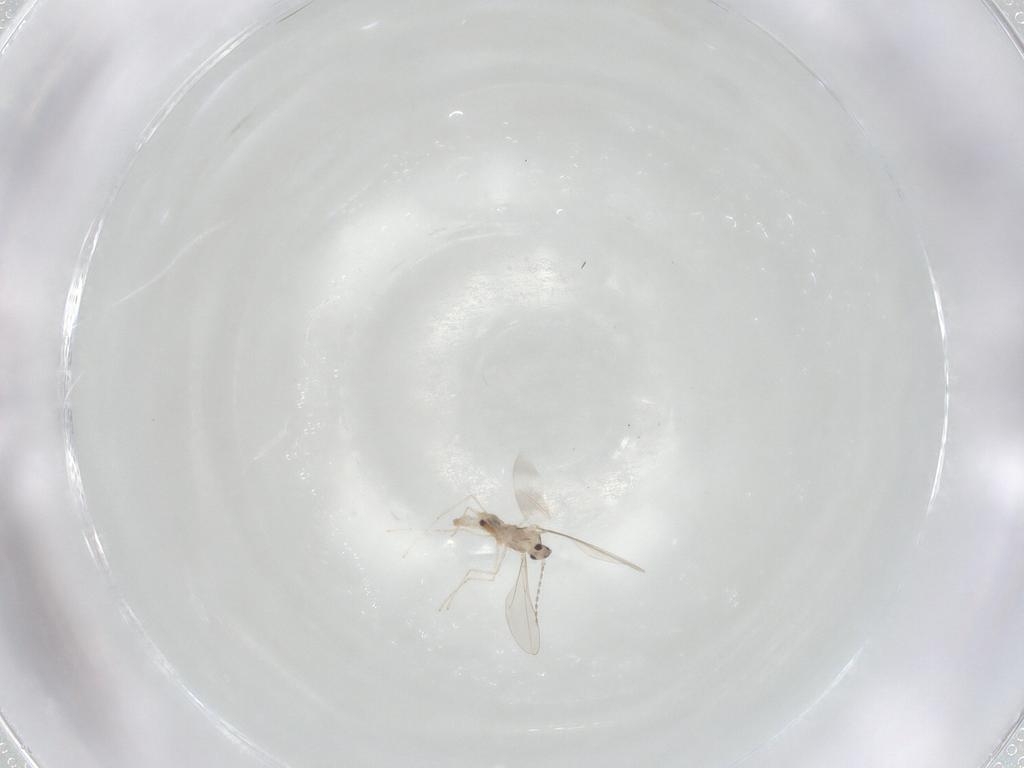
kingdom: Animalia
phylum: Arthropoda
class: Insecta
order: Diptera
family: Cecidomyiidae
